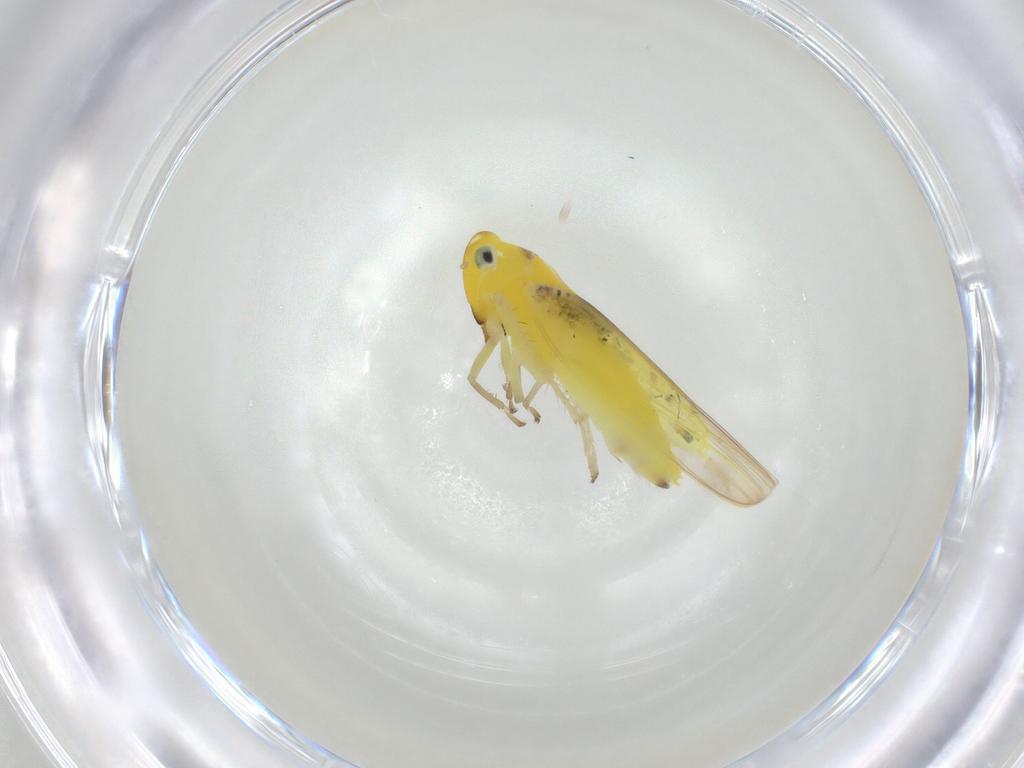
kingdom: Animalia
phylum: Arthropoda
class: Insecta
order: Hemiptera
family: Cicadellidae
